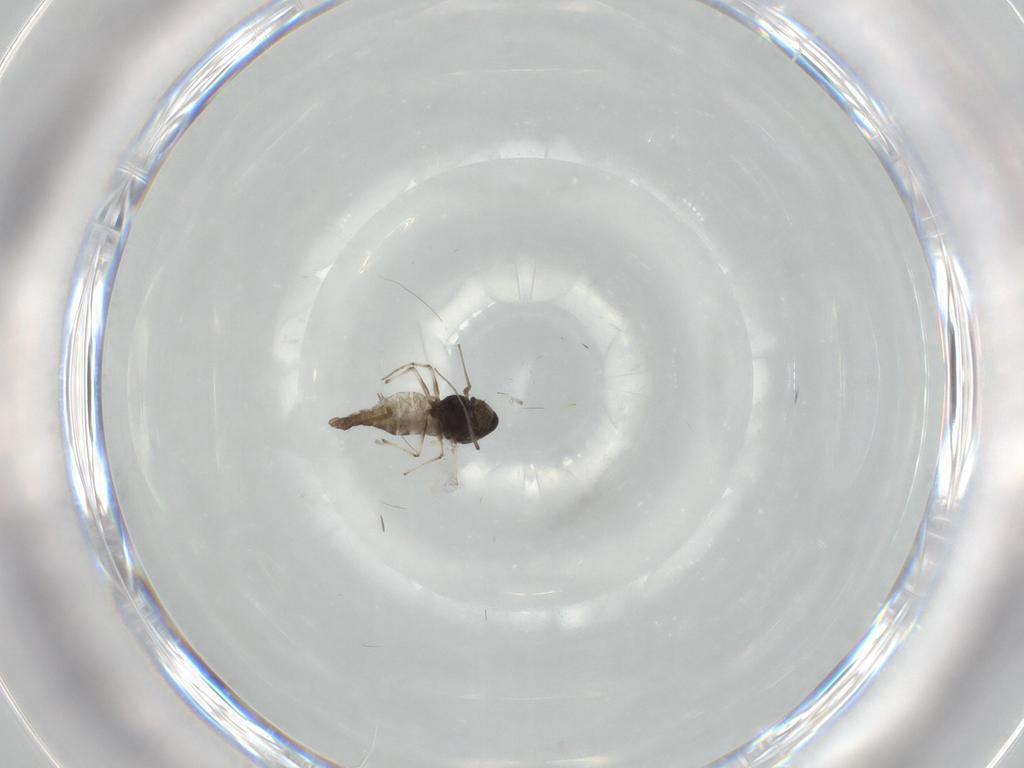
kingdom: Animalia
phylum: Arthropoda
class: Insecta
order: Diptera
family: Chironomidae
